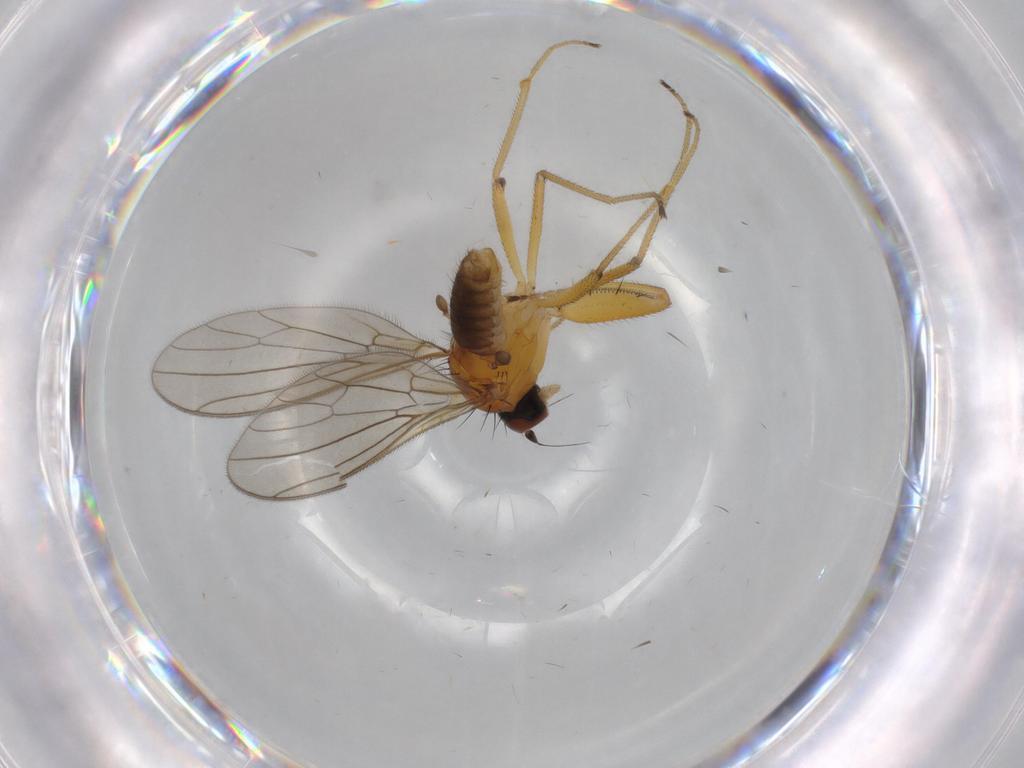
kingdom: Animalia
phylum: Arthropoda
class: Insecta
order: Diptera
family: Empididae
